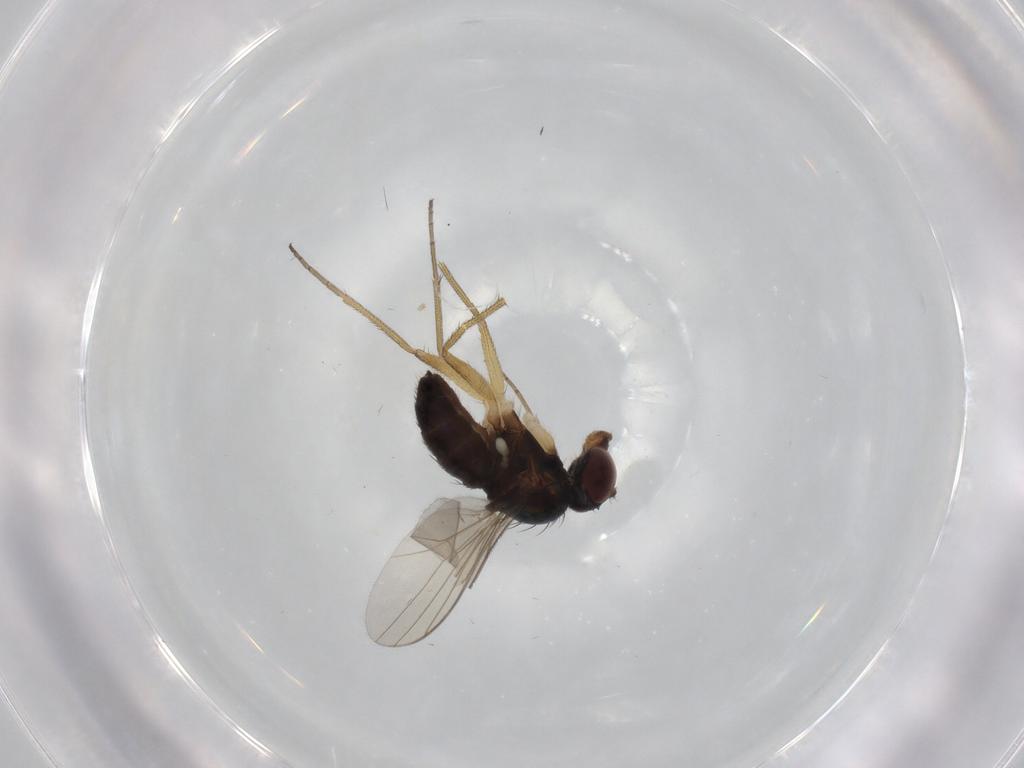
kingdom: Animalia
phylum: Arthropoda
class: Insecta
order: Diptera
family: Dolichopodidae
